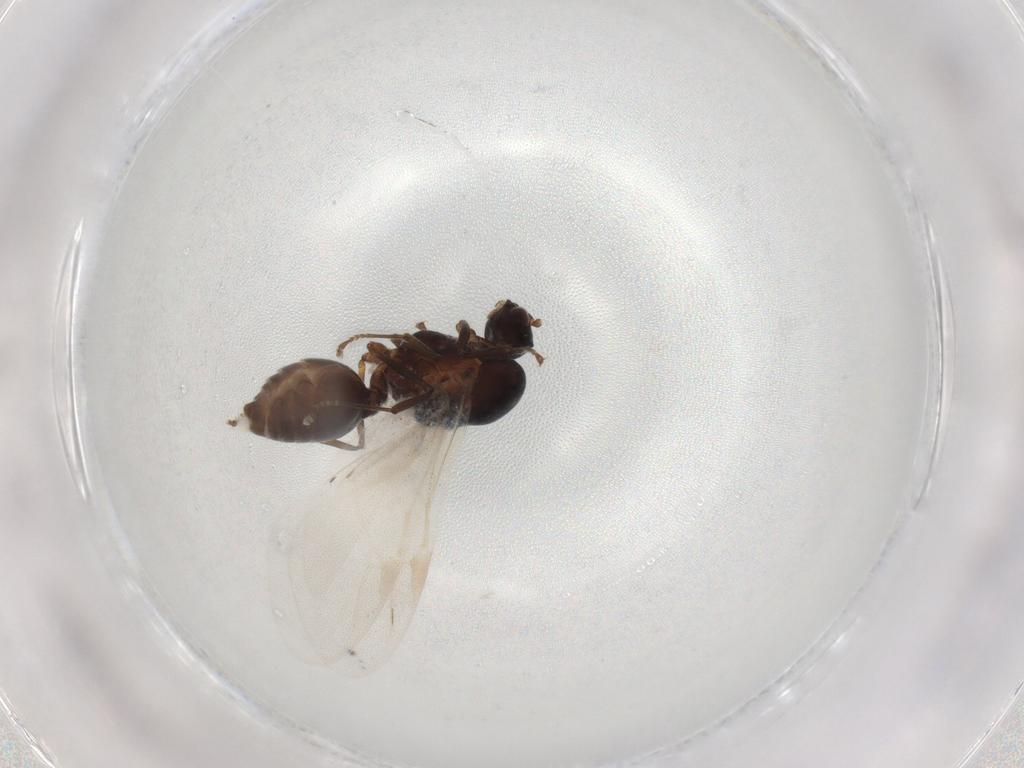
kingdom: Animalia
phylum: Arthropoda
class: Insecta
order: Hymenoptera
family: Formicidae
